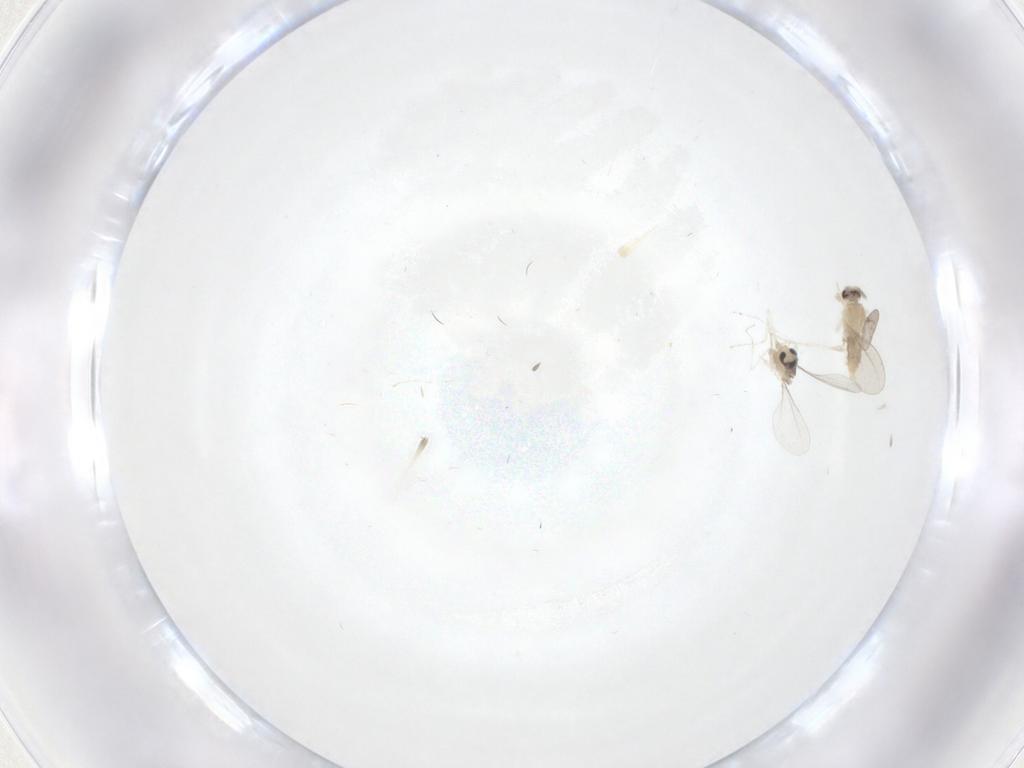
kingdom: Animalia
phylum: Arthropoda
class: Insecta
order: Diptera
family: Cecidomyiidae
